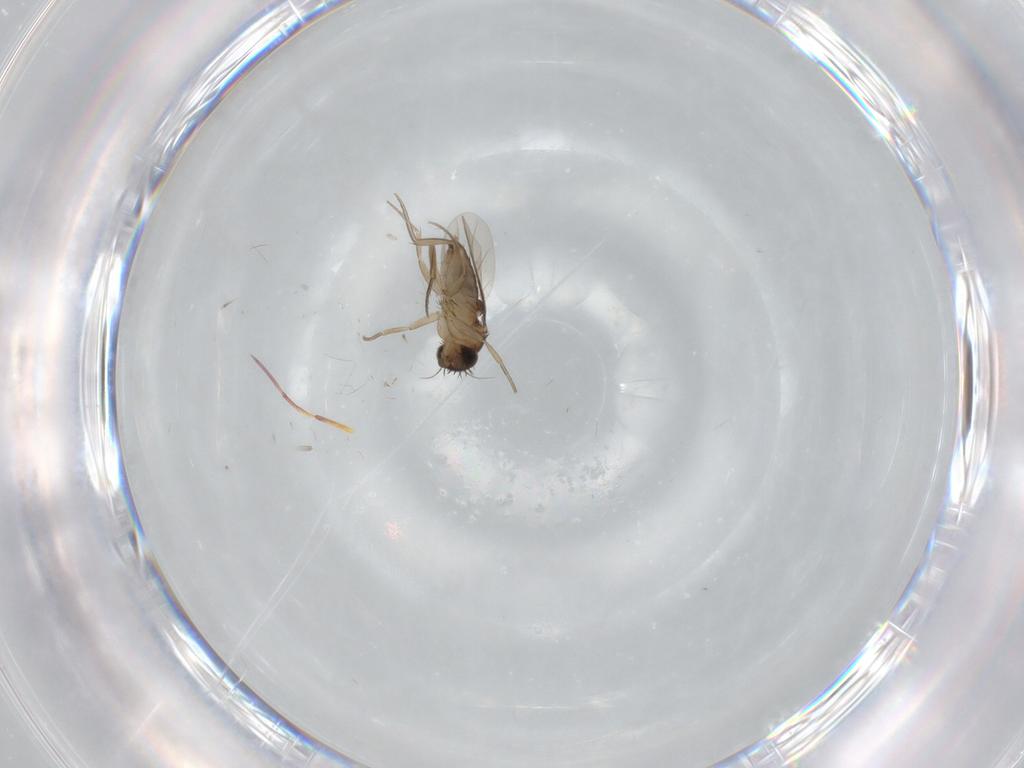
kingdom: Animalia
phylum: Arthropoda
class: Insecta
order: Diptera
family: Phoridae
